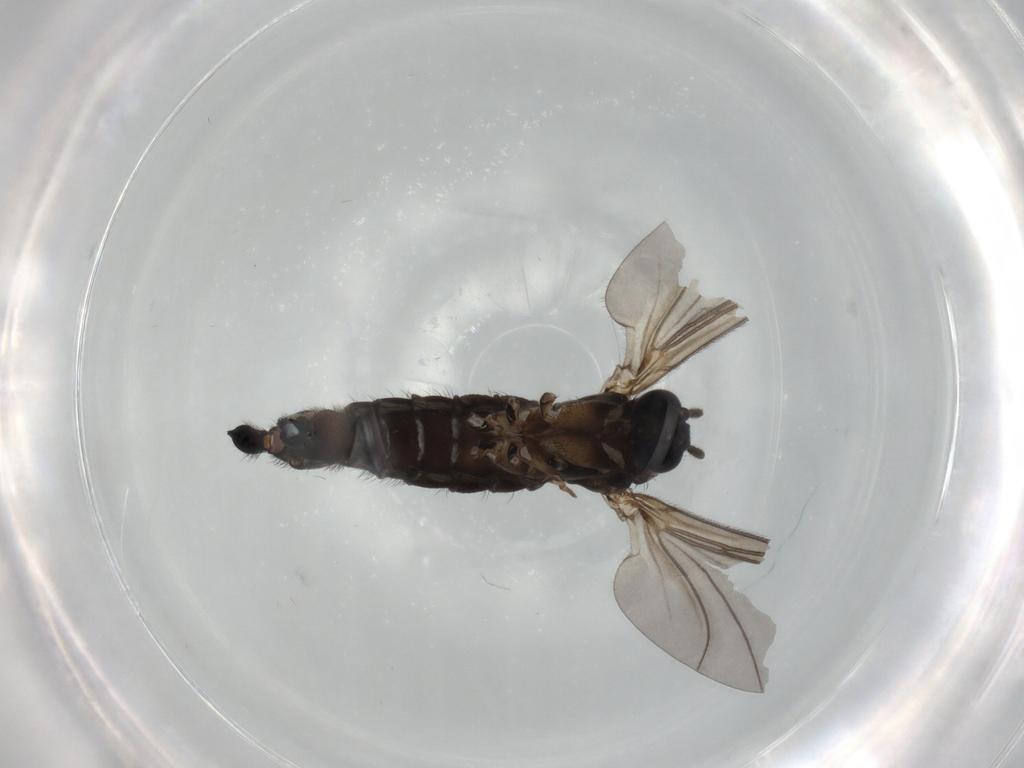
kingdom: Animalia
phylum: Arthropoda
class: Insecta
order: Diptera
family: Sciaridae
